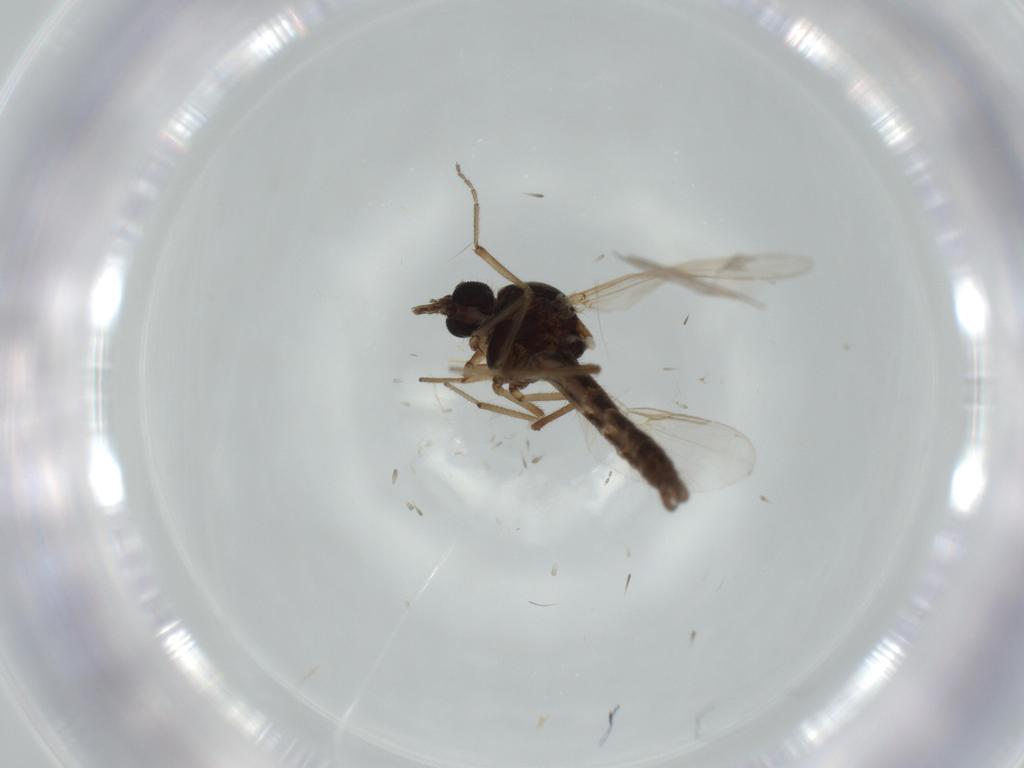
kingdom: Animalia
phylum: Arthropoda
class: Insecta
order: Diptera
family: Ceratopogonidae
